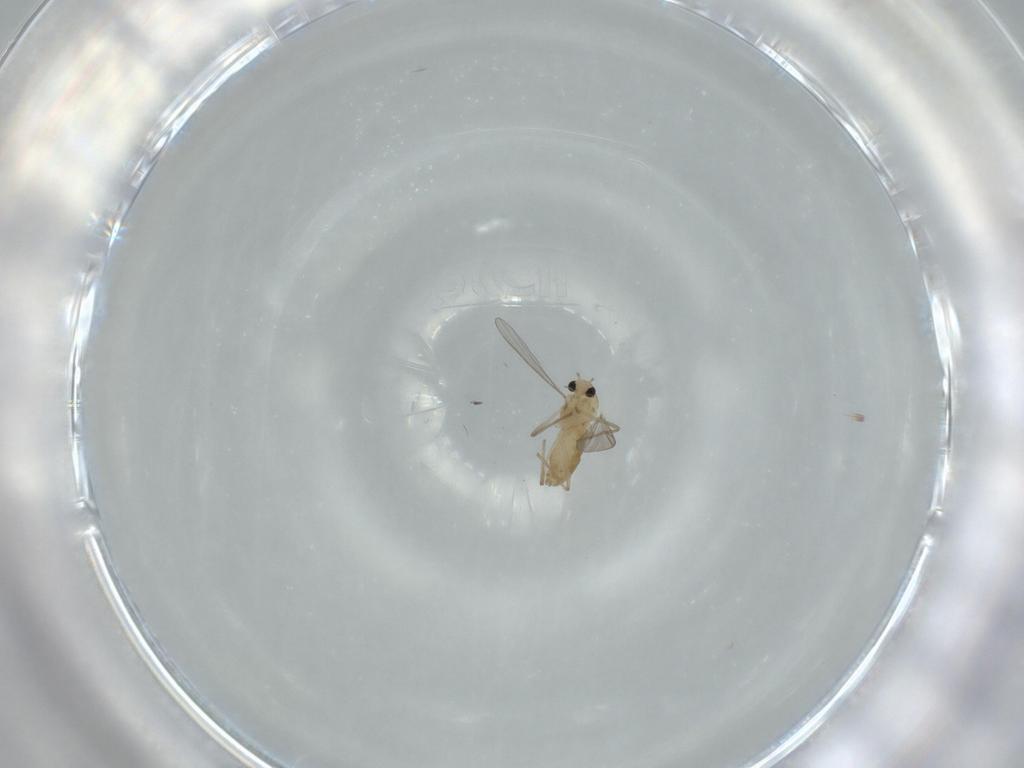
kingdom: Animalia
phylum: Arthropoda
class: Insecta
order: Diptera
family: Chironomidae
